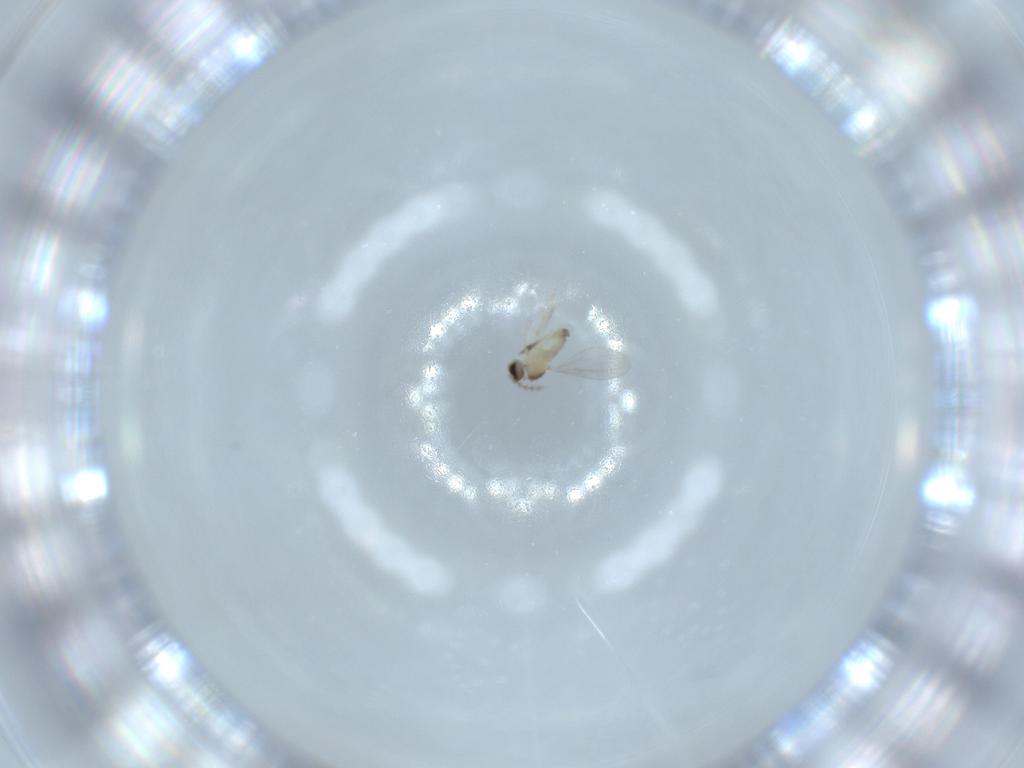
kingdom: Animalia
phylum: Arthropoda
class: Insecta
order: Diptera
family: Cecidomyiidae
